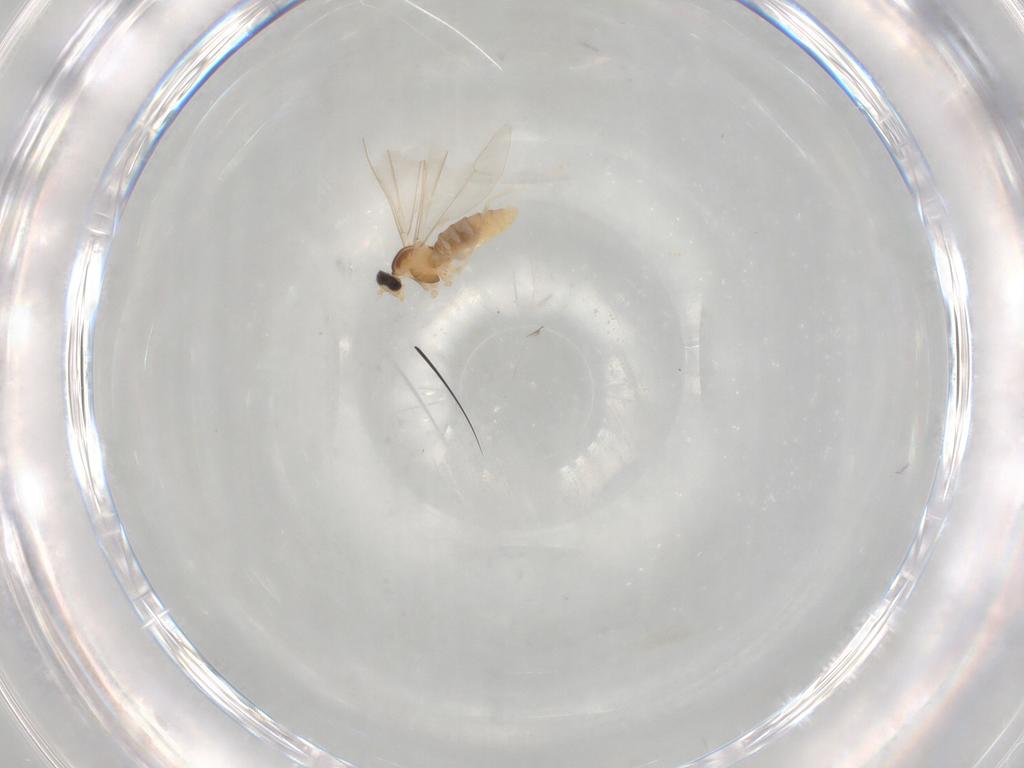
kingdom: Animalia
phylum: Arthropoda
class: Insecta
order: Diptera
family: Cecidomyiidae
